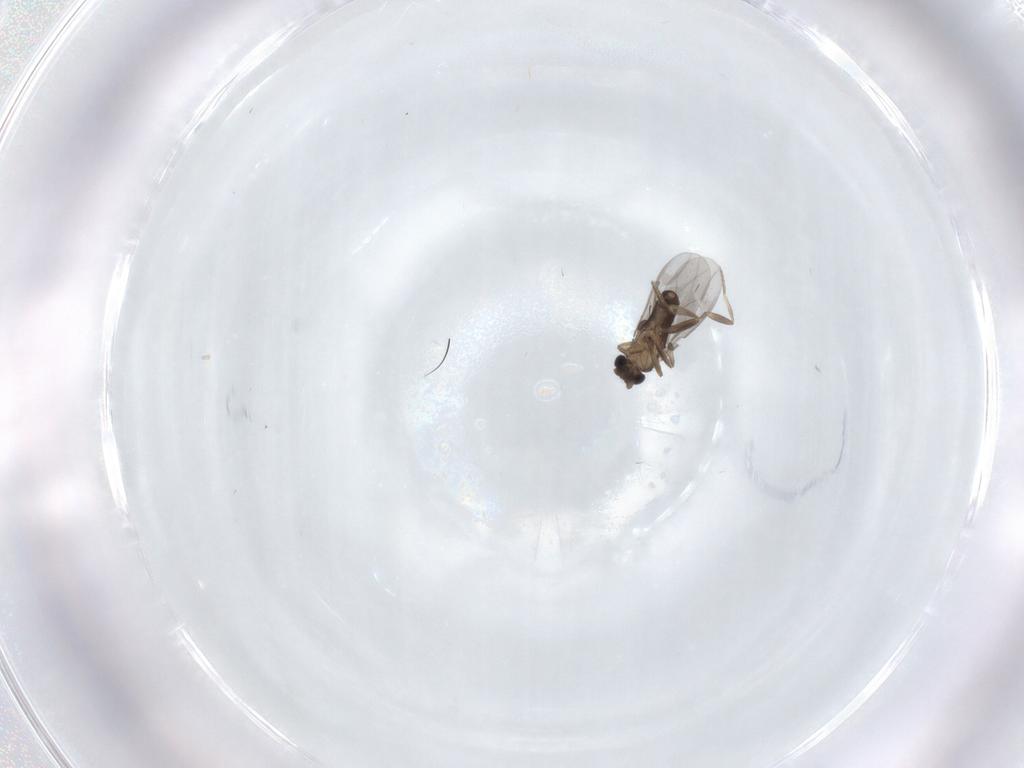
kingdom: Animalia
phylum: Arthropoda
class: Insecta
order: Diptera
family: Phoridae
